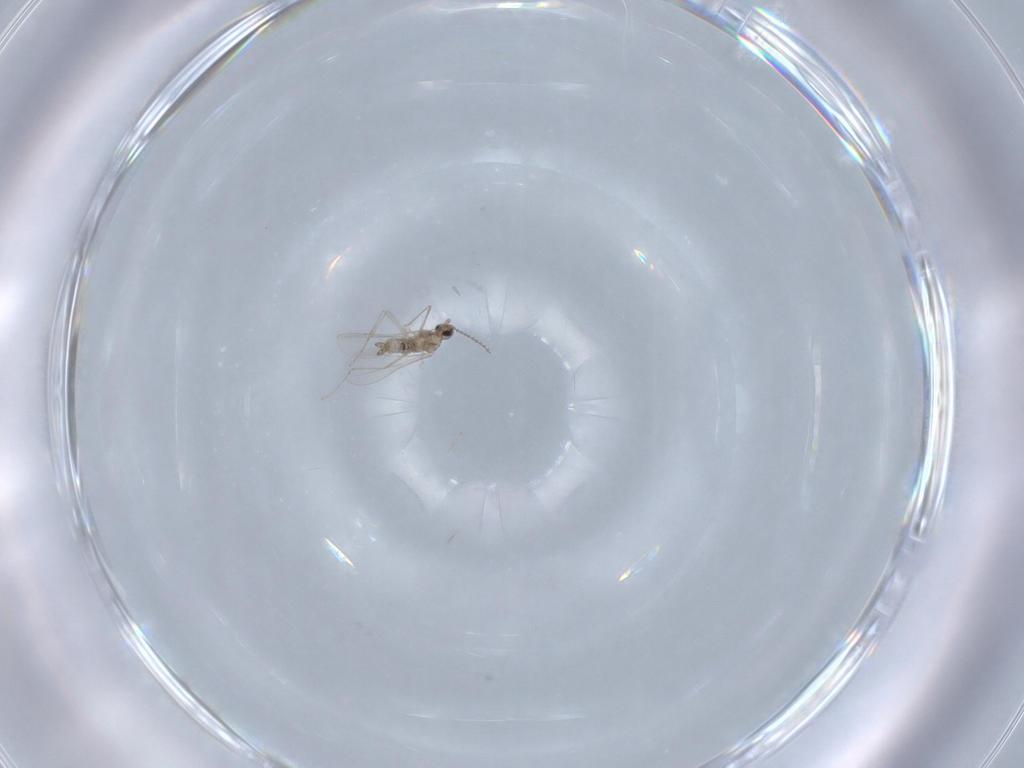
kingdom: Animalia
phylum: Arthropoda
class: Insecta
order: Diptera
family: Cecidomyiidae
